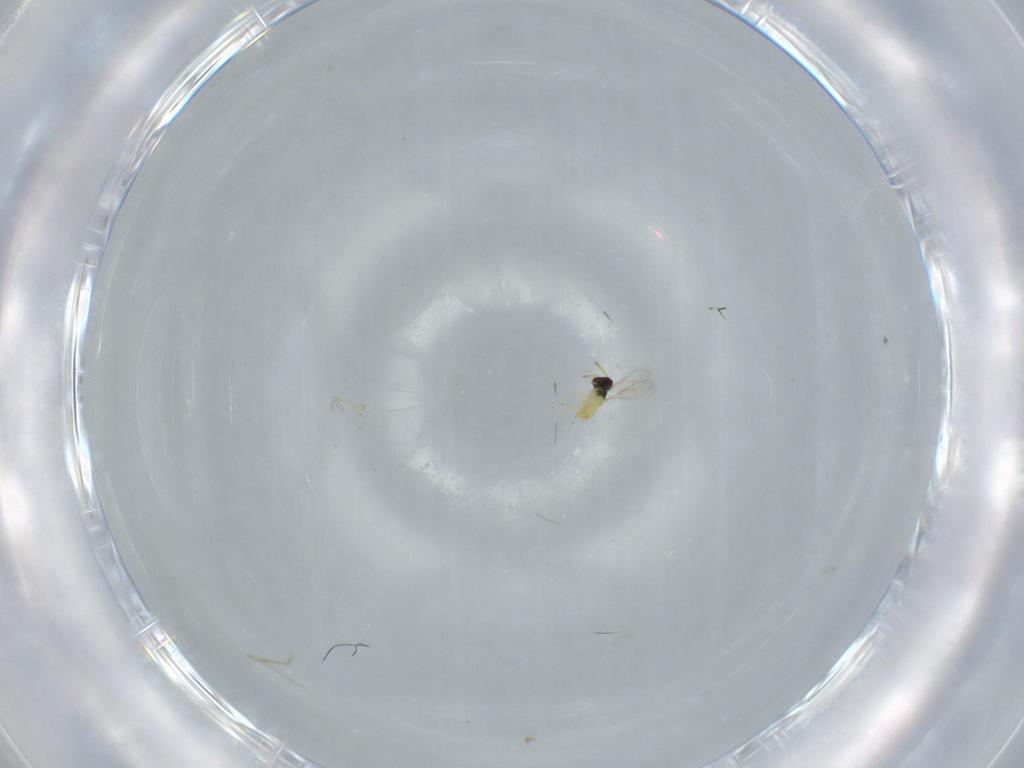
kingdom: Animalia
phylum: Arthropoda
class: Insecta
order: Hymenoptera
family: Aphelinidae
